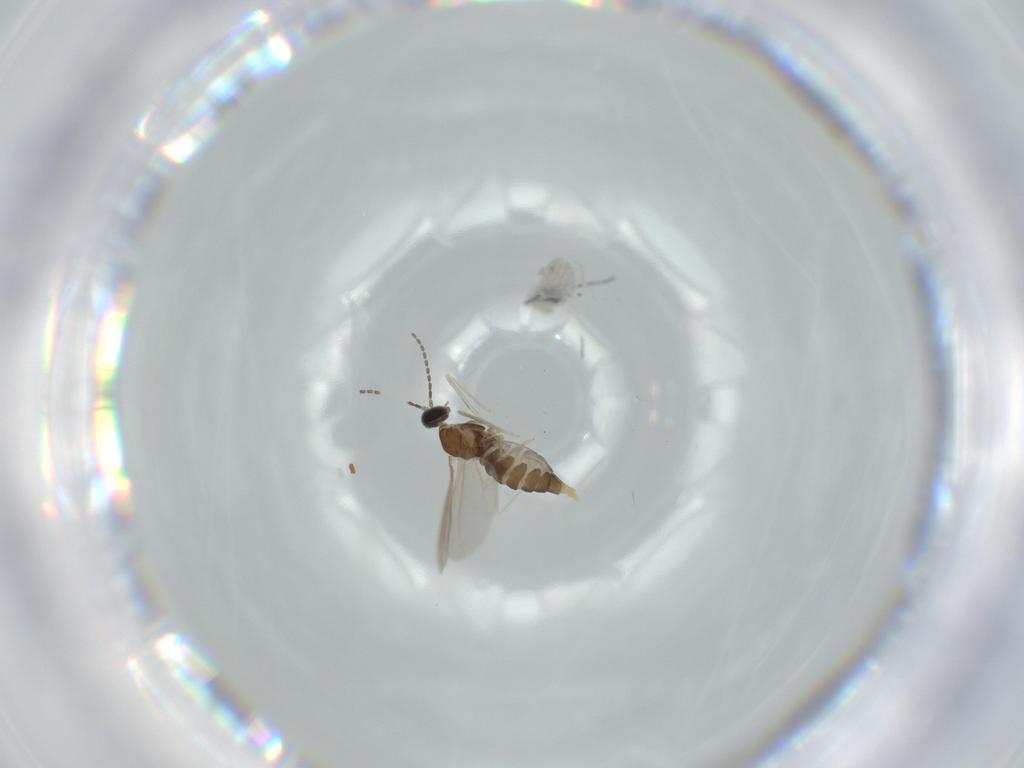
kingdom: Animalia
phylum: Arthropoda
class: Insecta
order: Diptera
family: Cecidomyiidae
